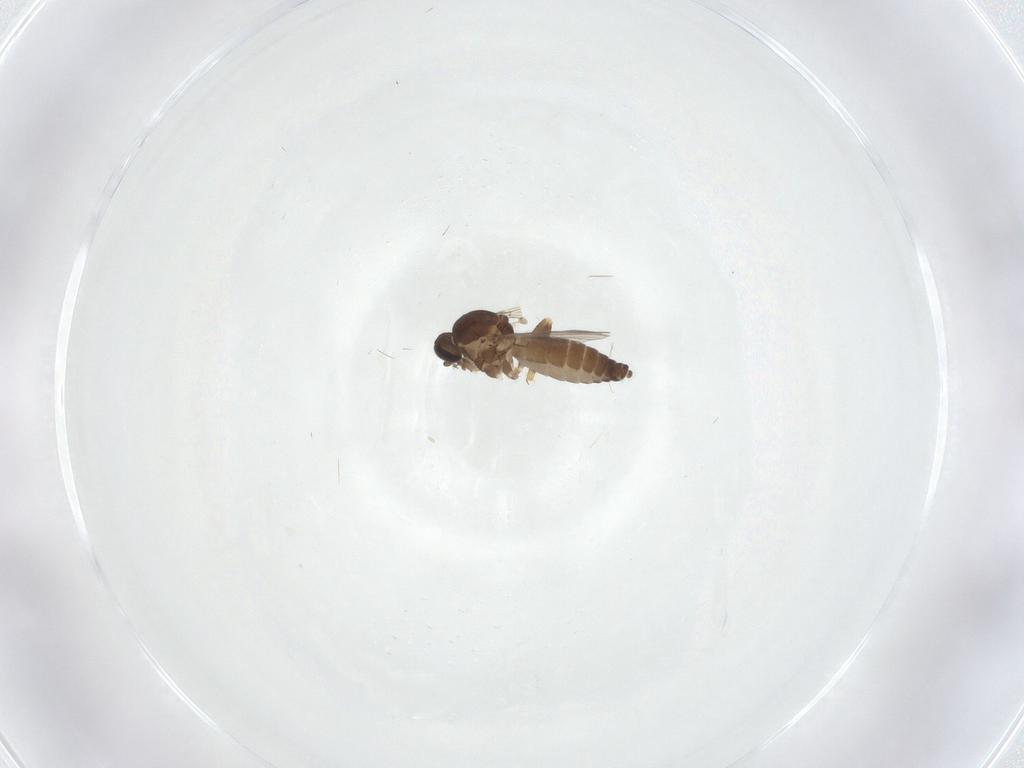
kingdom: Animalia
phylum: Arthropoda
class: Insecta
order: Diptera
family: Ceratopogonidae
